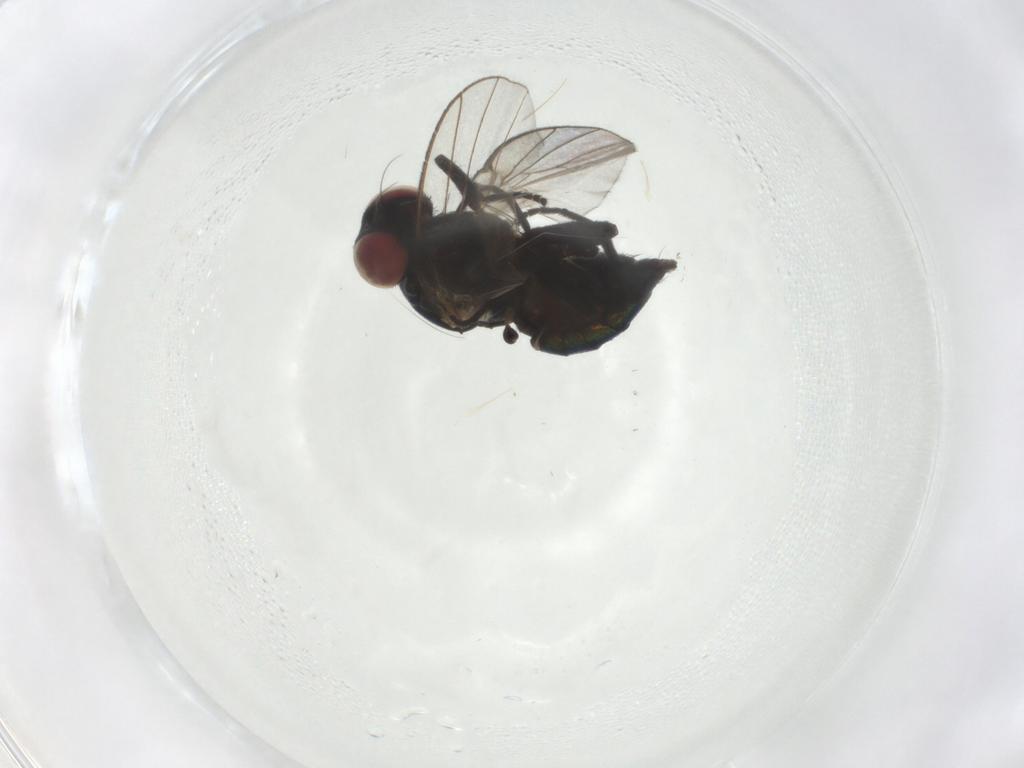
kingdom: Animalia
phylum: Arthropoda
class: Insecta
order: Diptera
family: Agromyzidae
